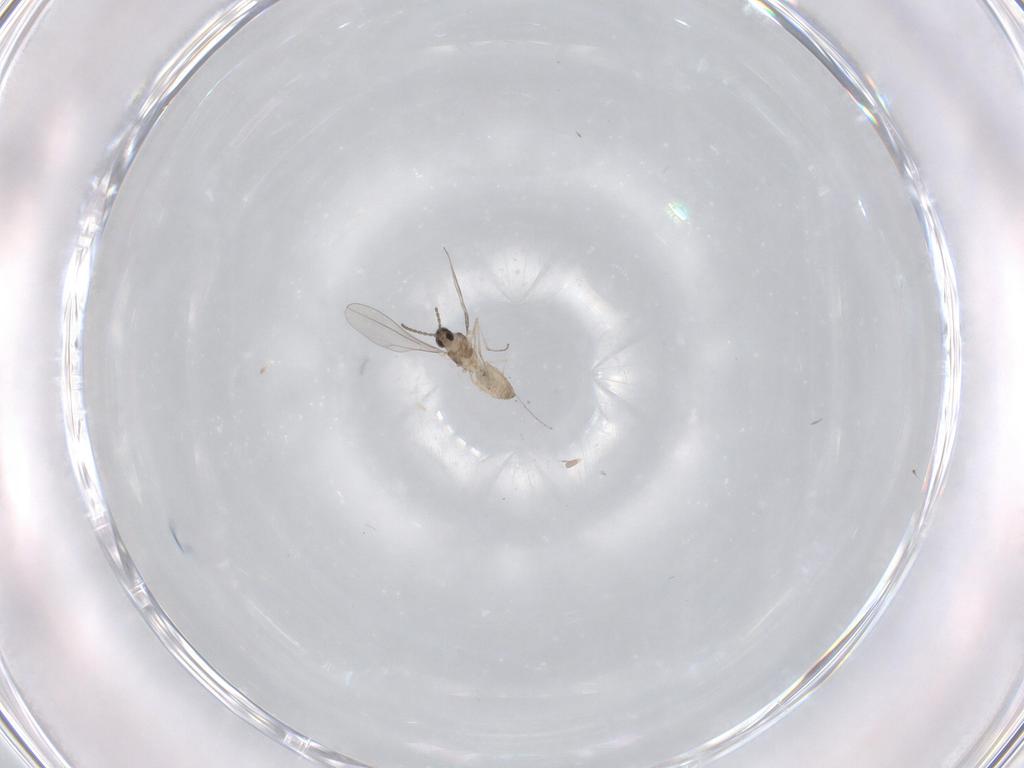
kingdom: Animalia
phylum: Arthropoda
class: Insecta
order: Diptera
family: Cecidomyiidae
